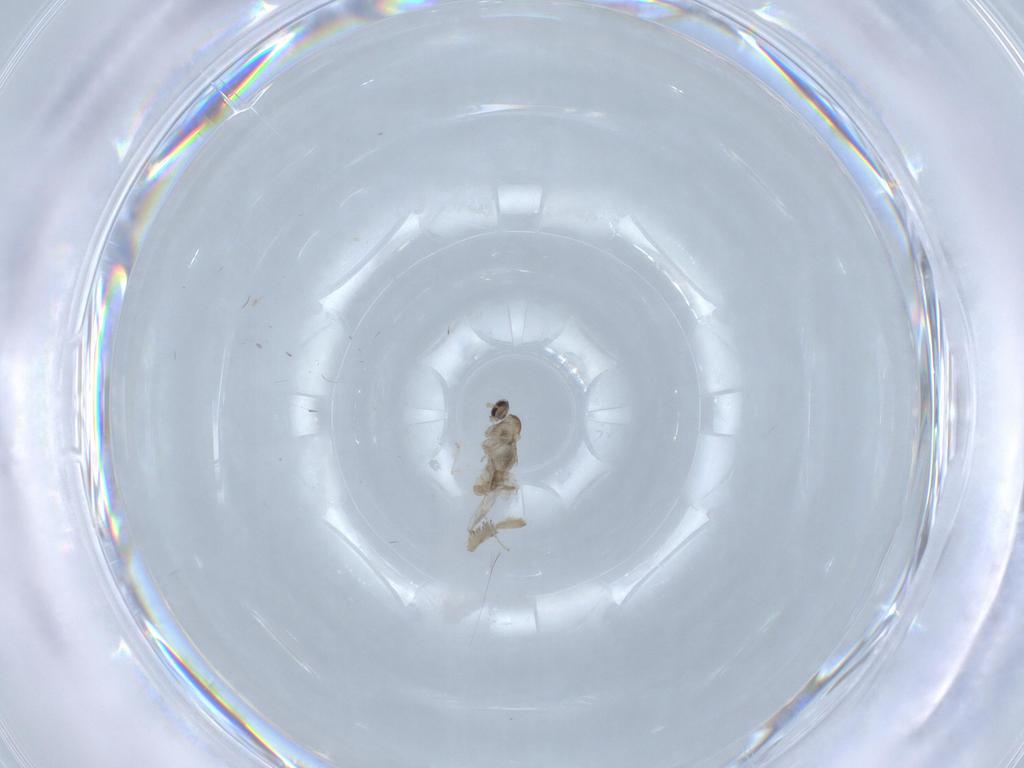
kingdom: Animalia
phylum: Arthropoda
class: Insecta
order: Diptera
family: Cecidomyiidae
